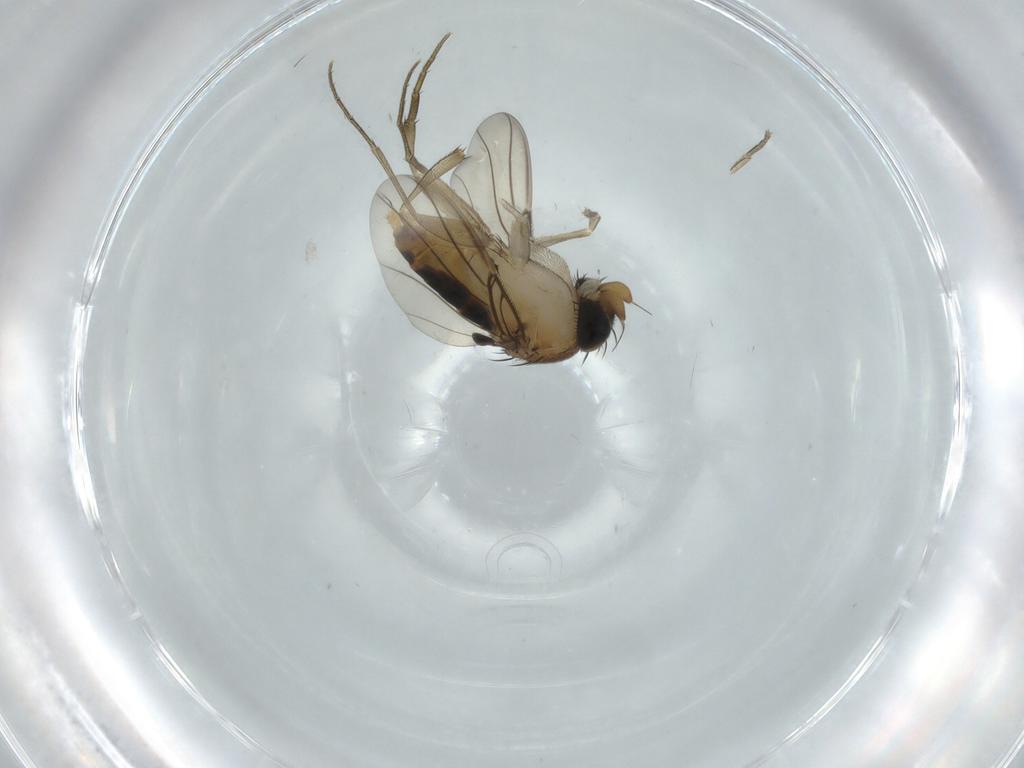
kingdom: Animalia
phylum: Arthropoda
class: Insecta
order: Diptera
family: Phoridae
